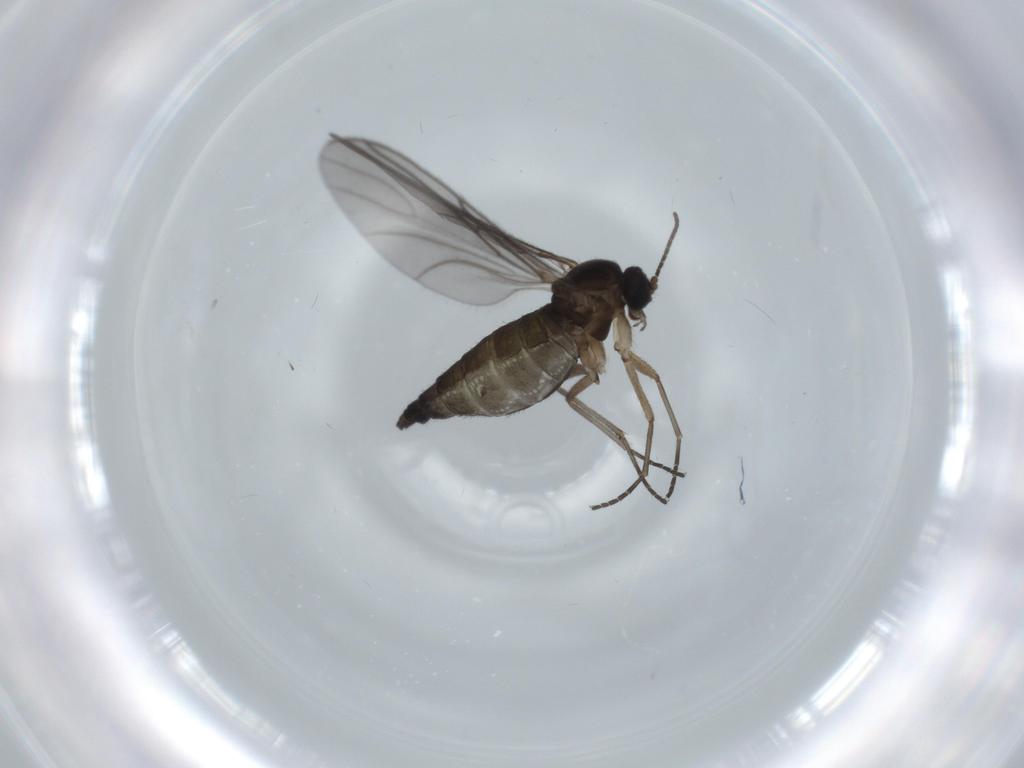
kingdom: Animalia
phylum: Arthropoda
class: Insecta
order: Diptera
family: Sciaridae
